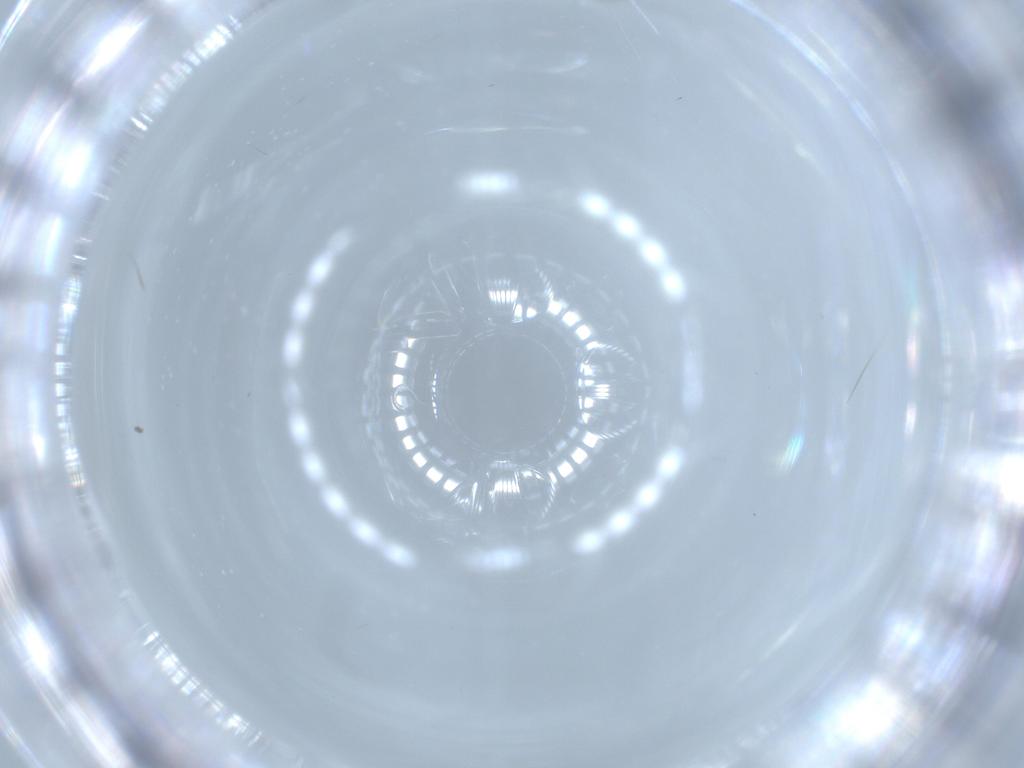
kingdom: Animalia
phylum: Arthropoda
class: Insecta
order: Diptera
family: Cecidomyiidae
